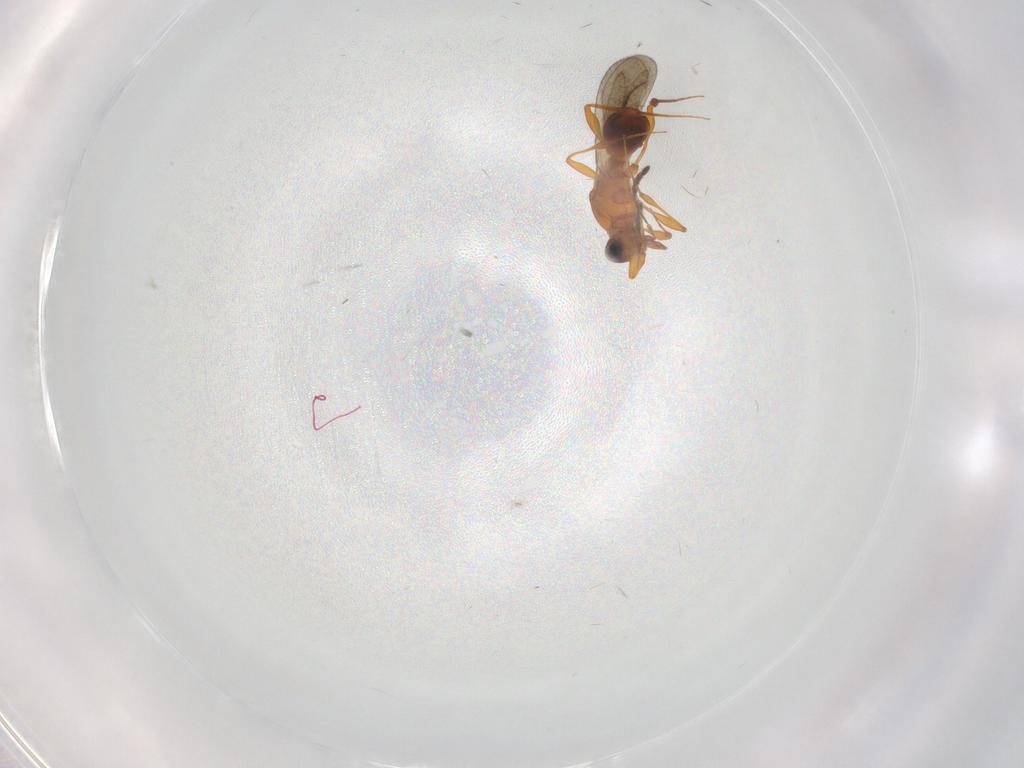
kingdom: Animalia
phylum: Arthropoda
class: Insecta
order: Hymenoptera
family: Platygastridae
